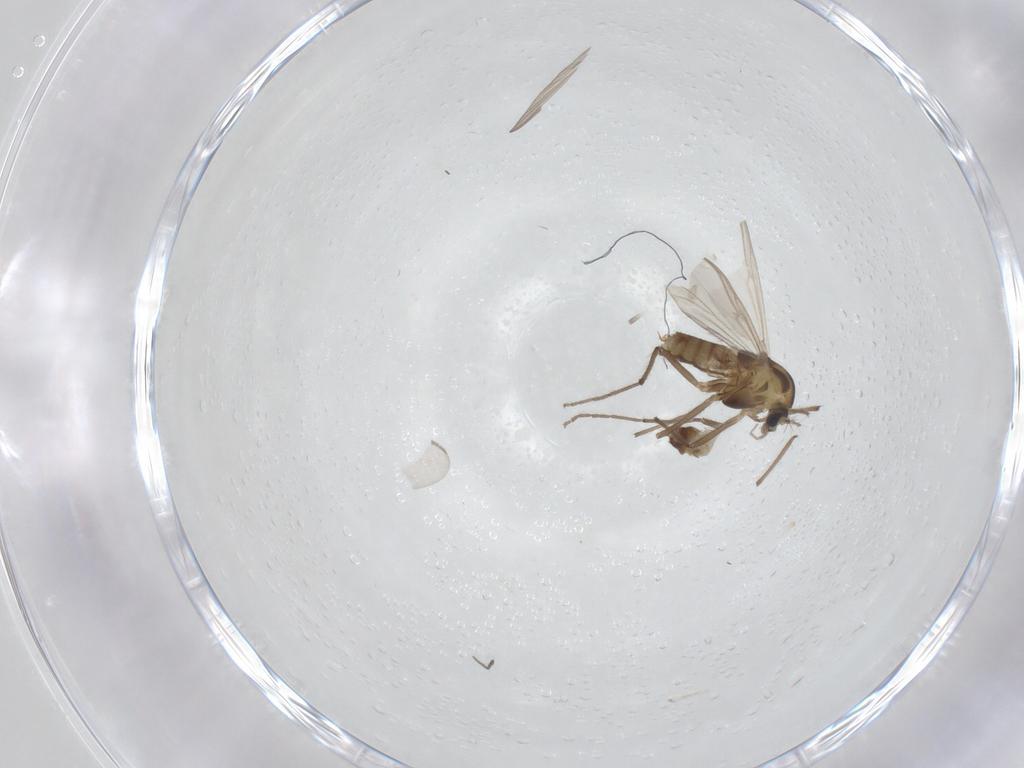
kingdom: Animalia
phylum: Arthropoda
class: Insecta
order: Diptera
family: Chironomidae
